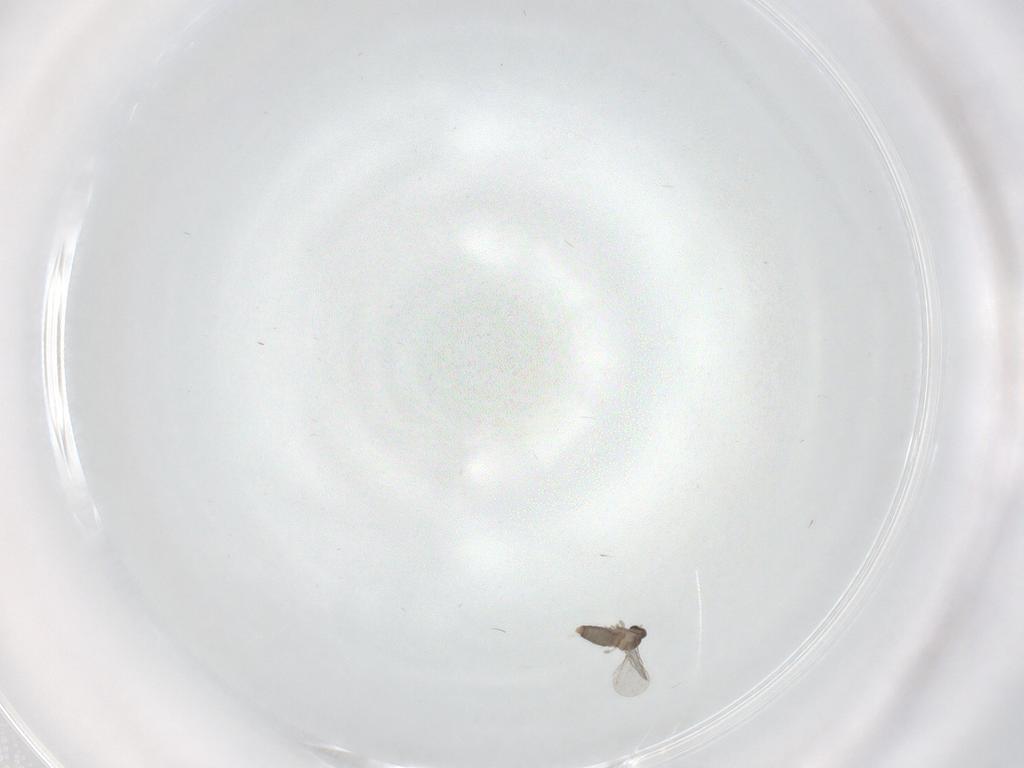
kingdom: Animalia
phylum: Arthropoda
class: Insecta
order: Diptera
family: Cecidomyiidae
